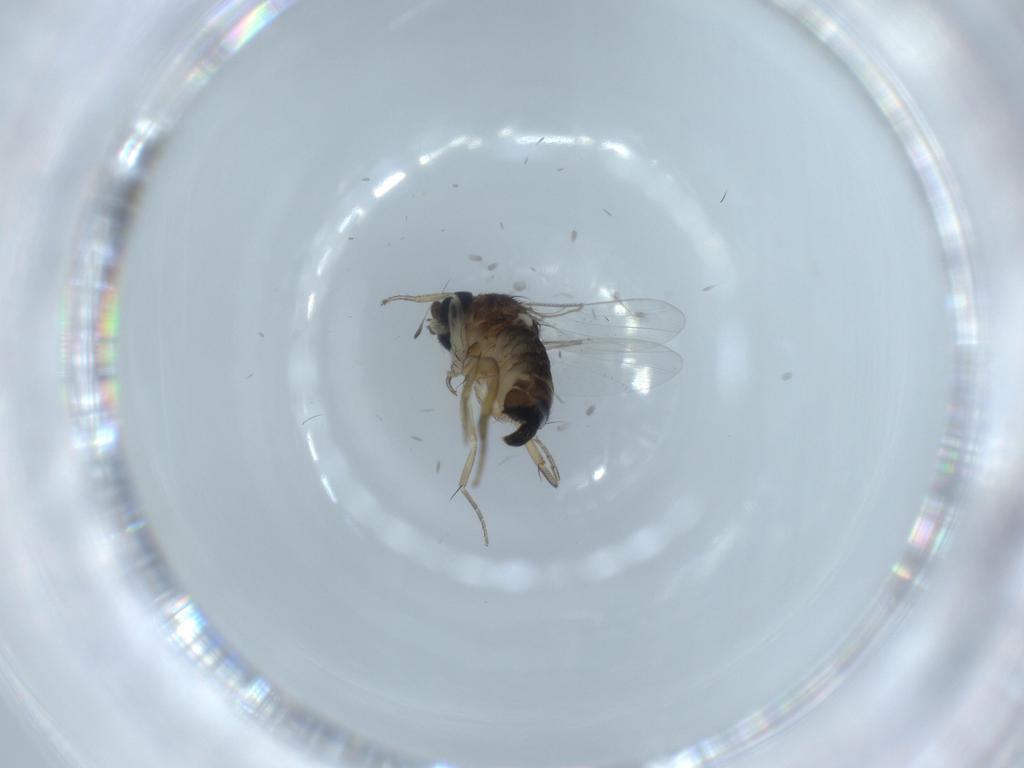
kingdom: Animalia
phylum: Arthropoda
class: Insecta
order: Diptera
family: Phoridae
